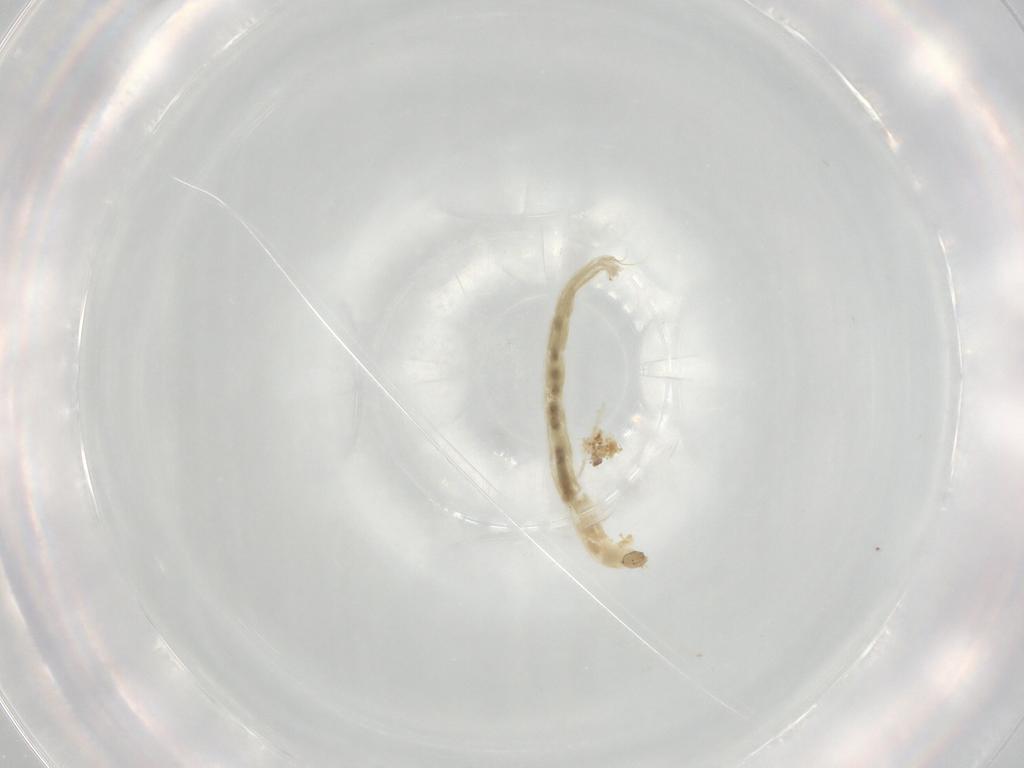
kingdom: Animalia
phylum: Arthropoda
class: Insecta
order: Diptera
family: Chironomidae
